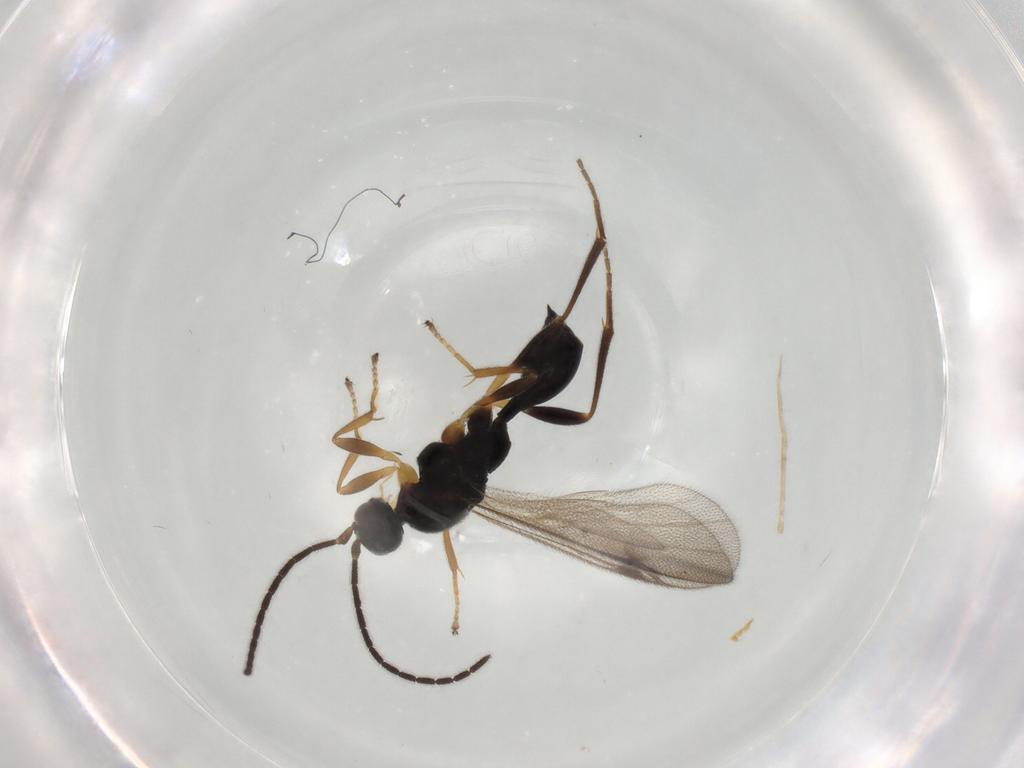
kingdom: Animalia
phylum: Arthropoda
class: Insecta
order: Hymenoptera
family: Proctotrupidae
